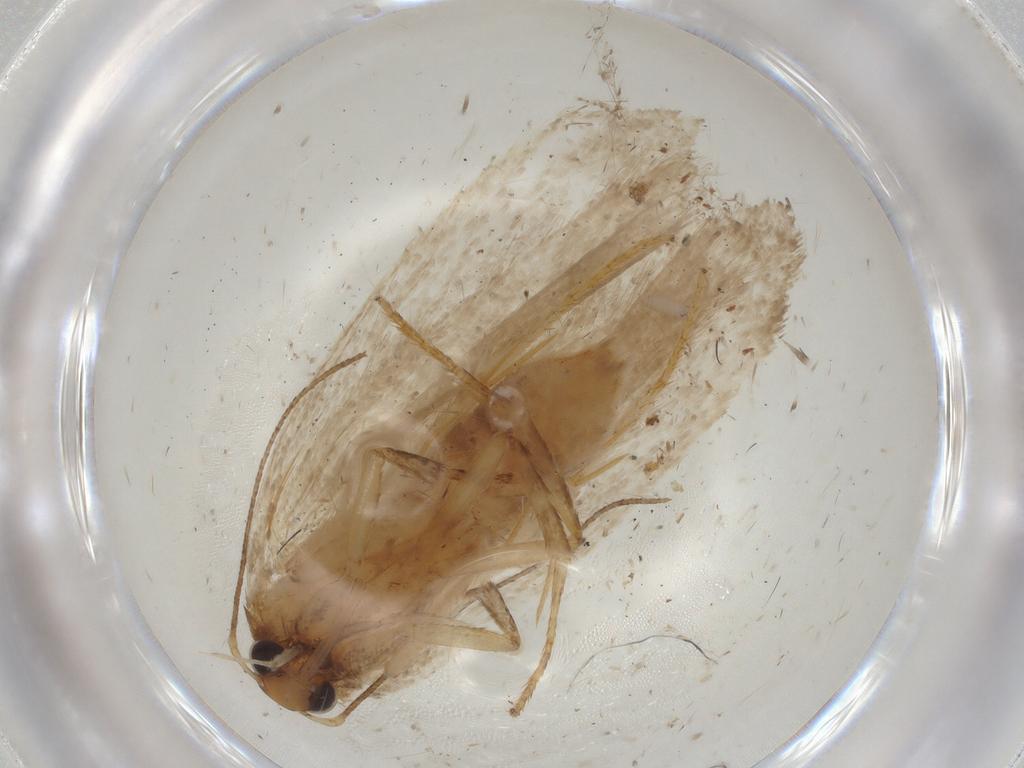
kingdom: Animalia
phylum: Arthropoda
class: Insecta
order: Lepidoptera
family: Gelechiidae
